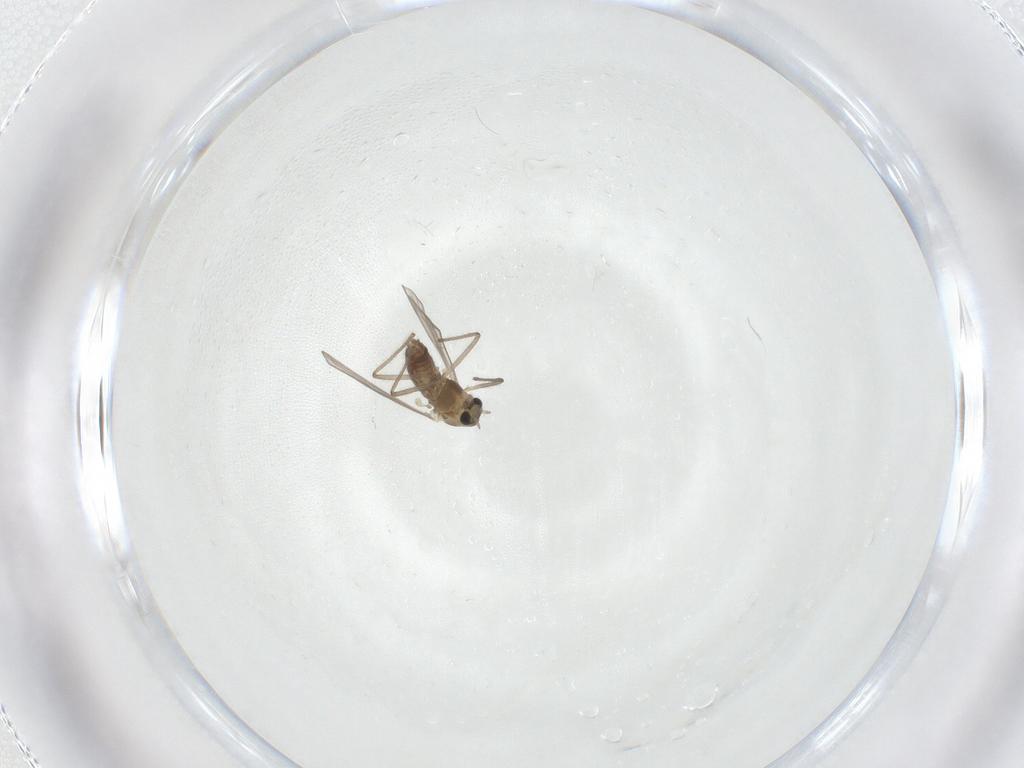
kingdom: Animalia
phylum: Arthropoda
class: Insecta
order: Diptera
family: Chironomidae
